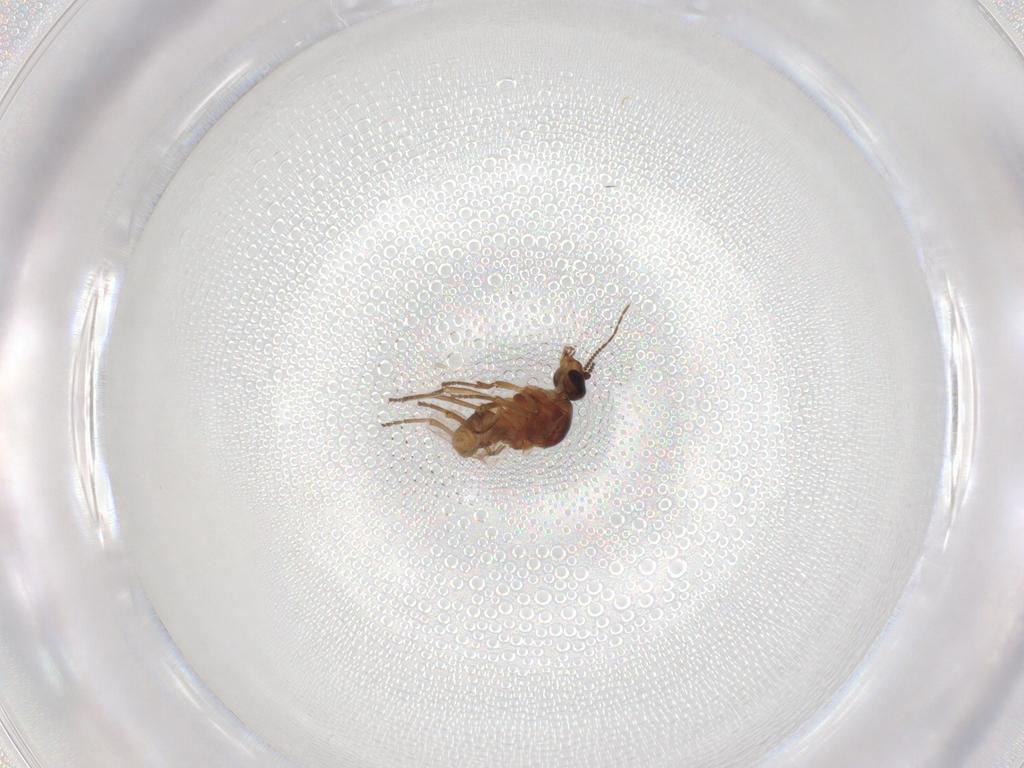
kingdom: Animalia
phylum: Arthropoda
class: Insecta
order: Diptera
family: Ceratopogonidae
